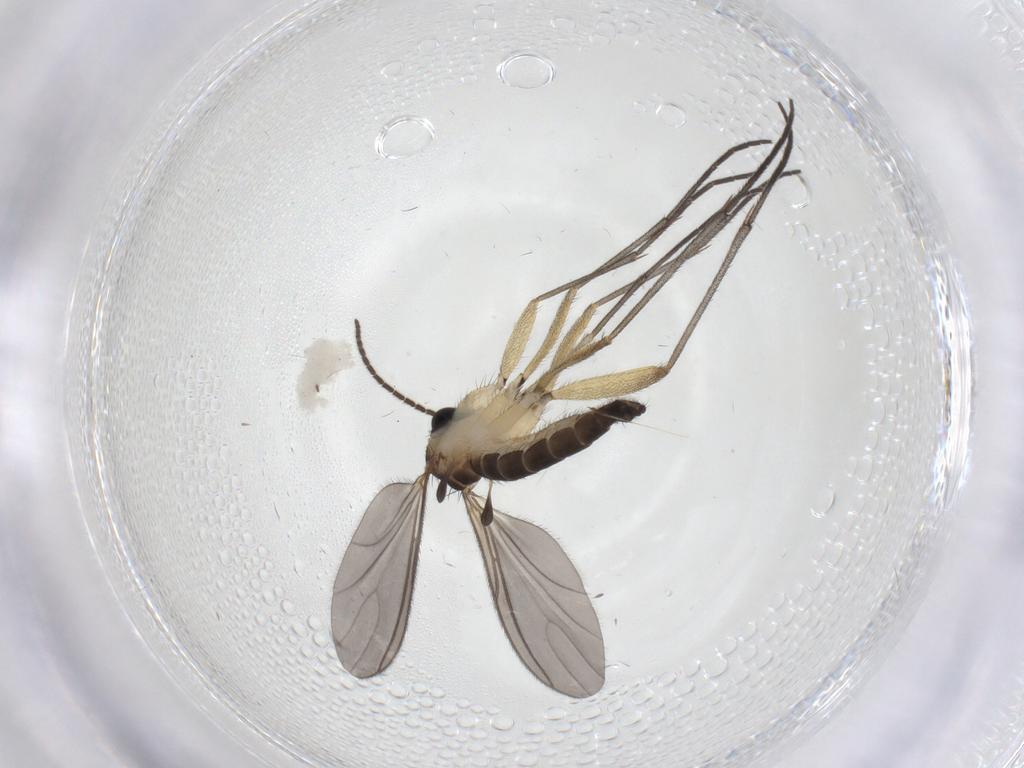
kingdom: Animalia
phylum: Arthropoda
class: Insecta
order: Diptera
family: Sciaridae
